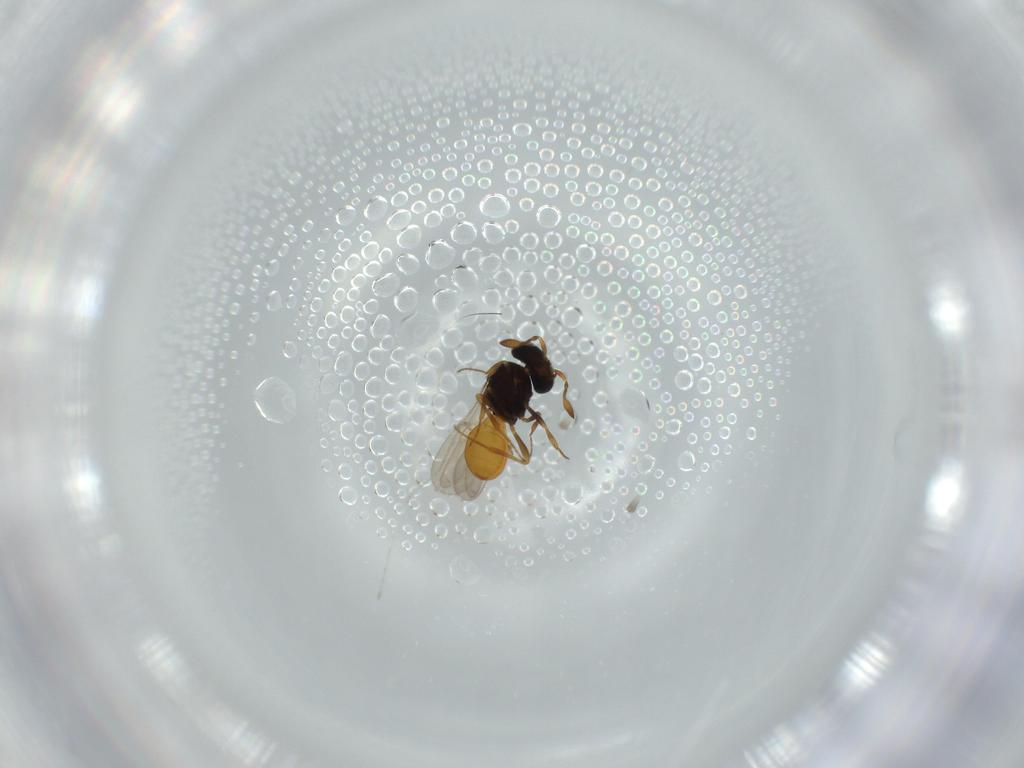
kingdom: Animalia
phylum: Arthropoda
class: Insecta
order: Hymenoptera
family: Scelionidae
